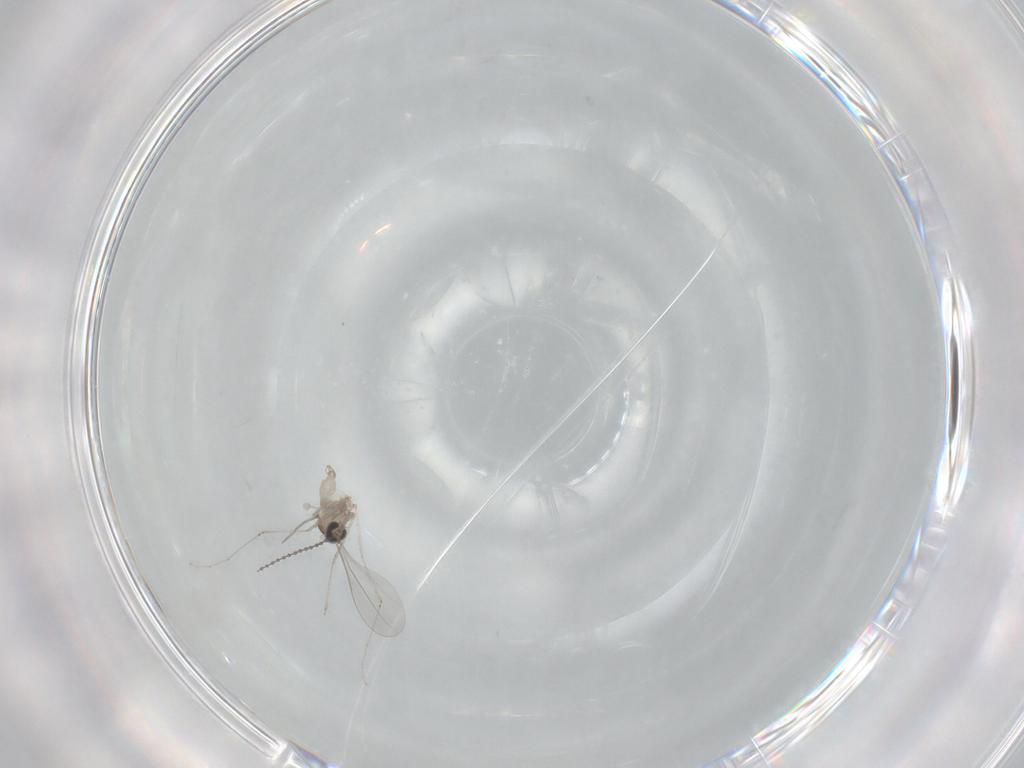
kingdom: Animalia
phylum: Arthropoda
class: Insecta
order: Diptera
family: Cecidomyiidae
